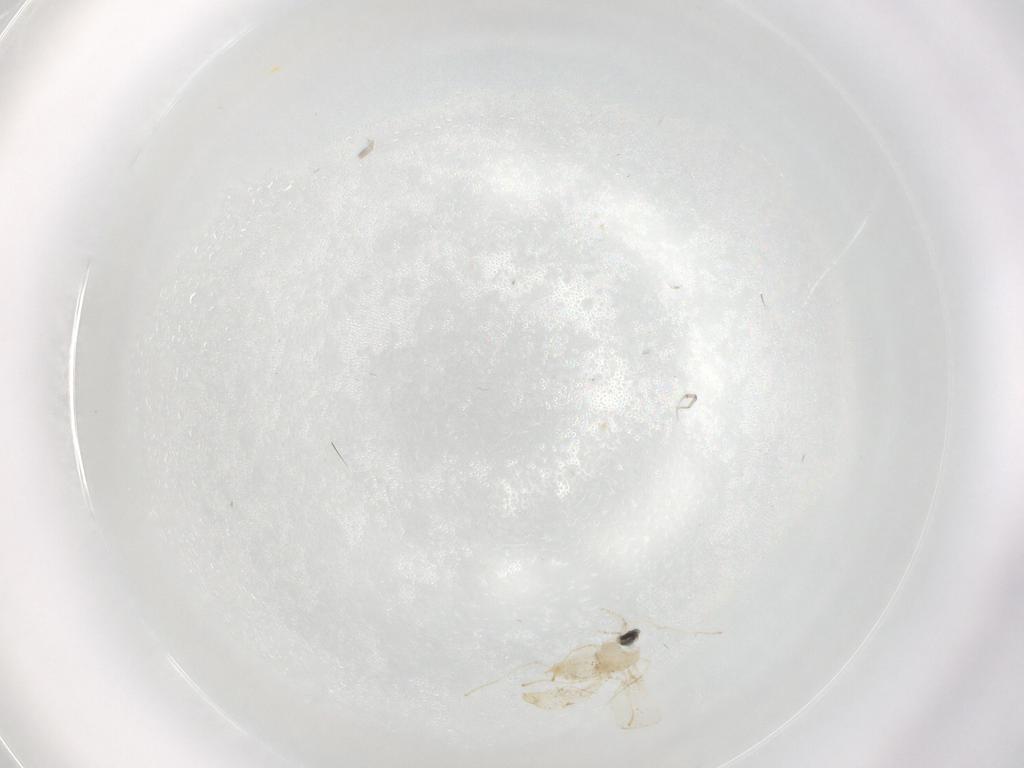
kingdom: Animalia
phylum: Arthropoda
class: Insecta
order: Diptera
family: Cecidomyiidae
